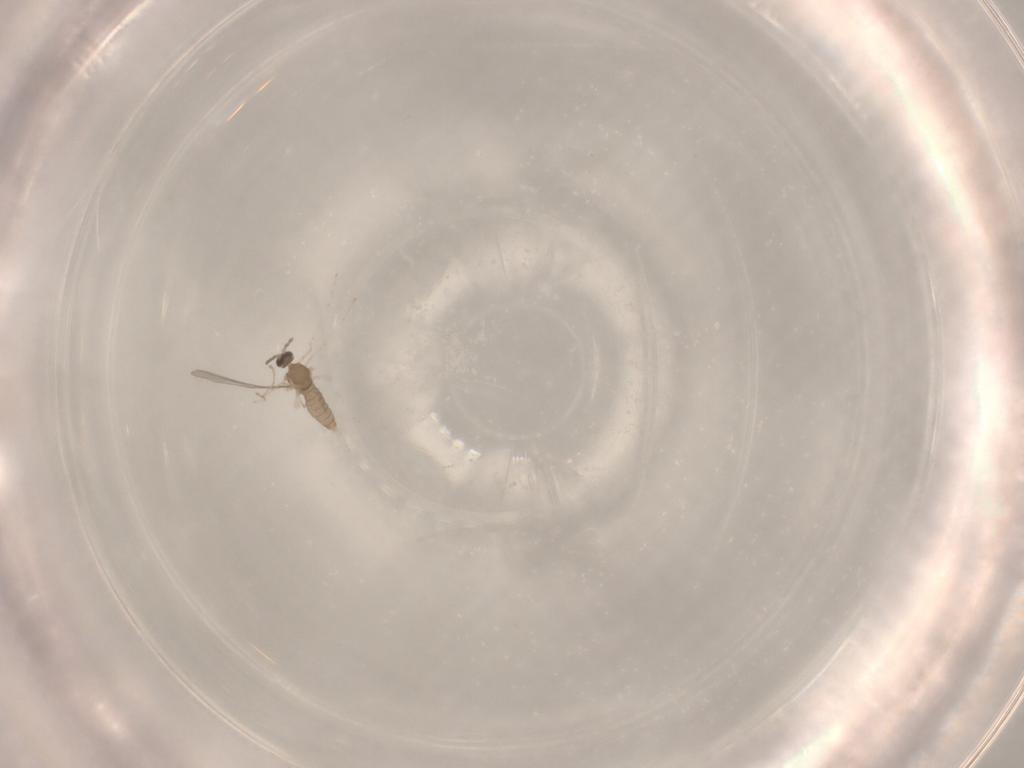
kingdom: Animalia
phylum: Arthropoda
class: Insecta
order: Diptera
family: Cecidomyiidae
